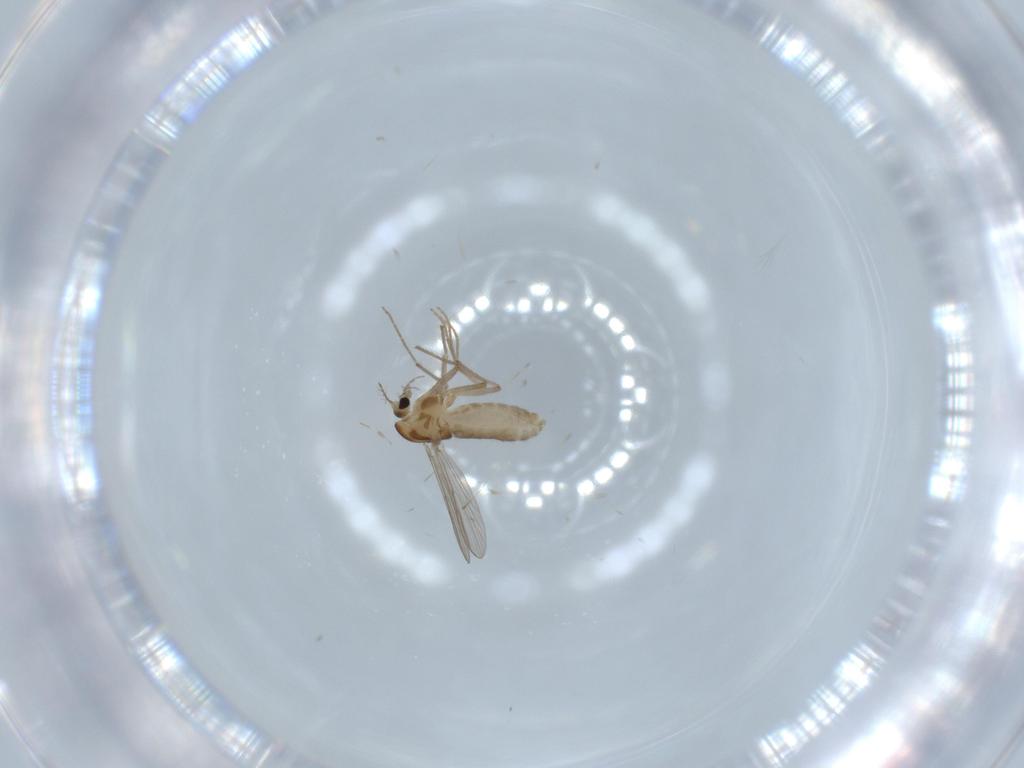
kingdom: Animalia
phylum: Arthropoda
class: Insecta
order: Diptera
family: Chironomidae
